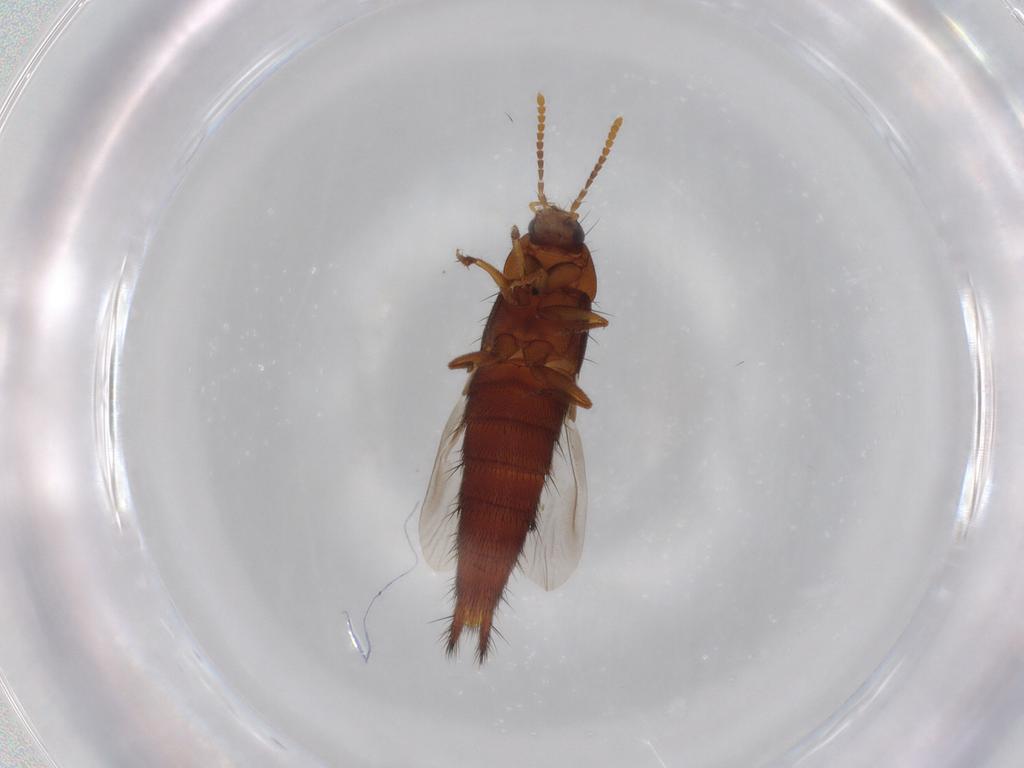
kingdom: Animalia
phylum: Arthropoda
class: Insecta
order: Coleoptera
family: Staphylinidae
